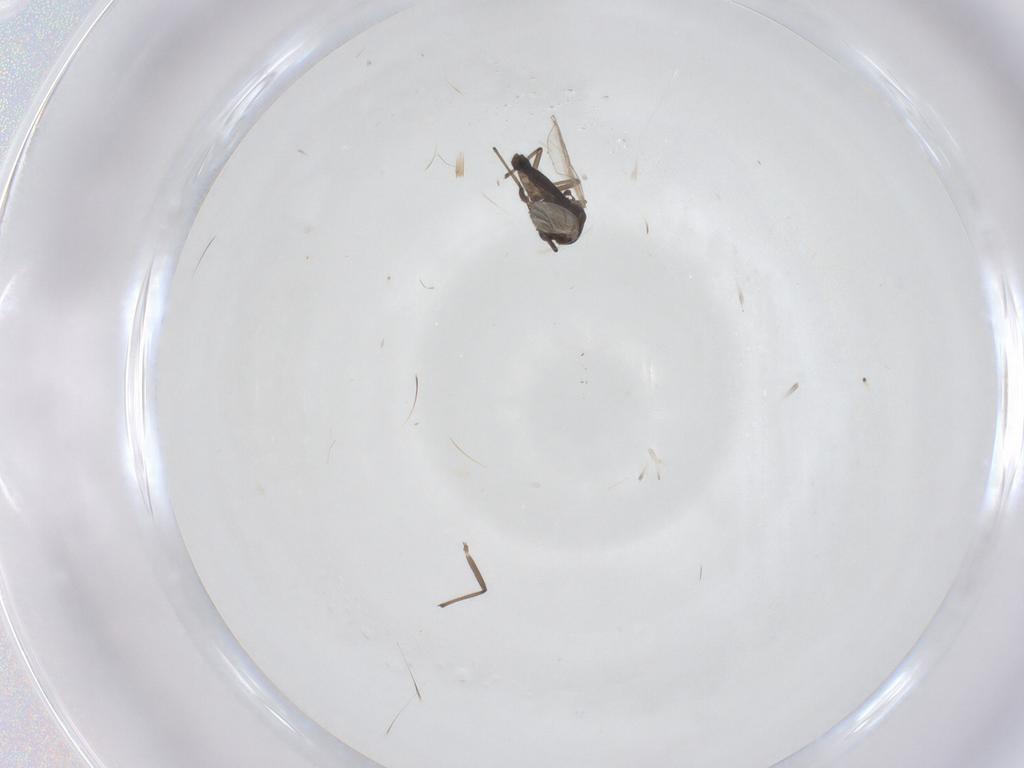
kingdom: Animalia
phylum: Arthropoda
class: Insecta
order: Diptera
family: Chironomidae
